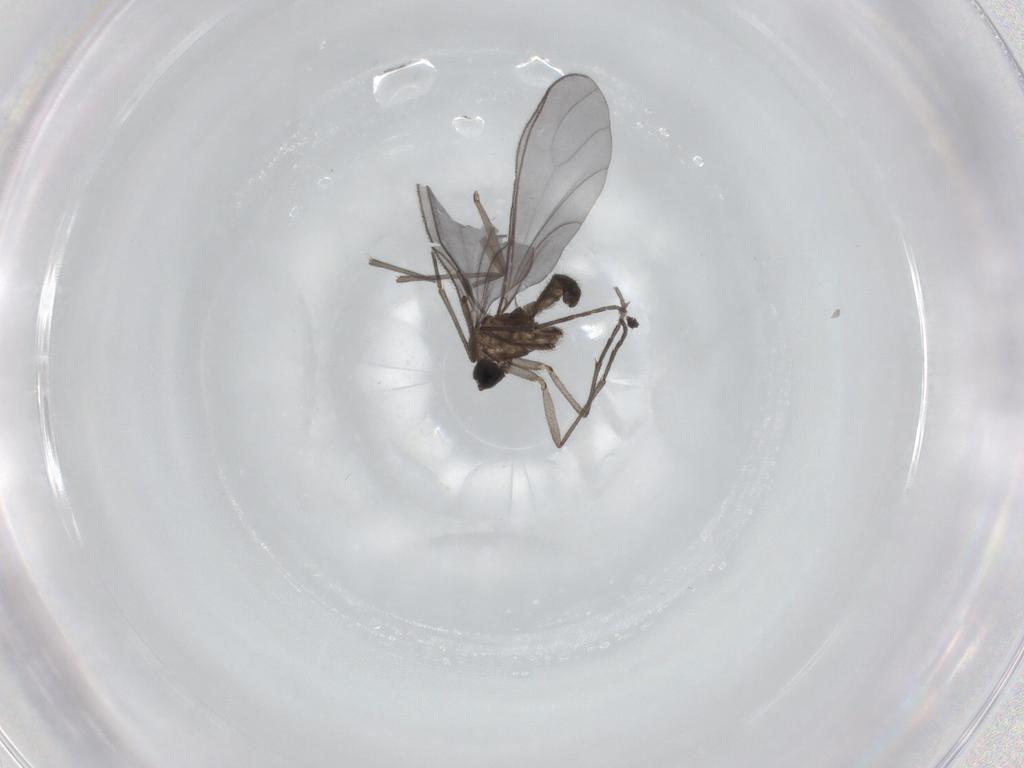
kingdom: Animalia
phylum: Arthropoda
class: Insecta
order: Diptera
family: Sciaridae
